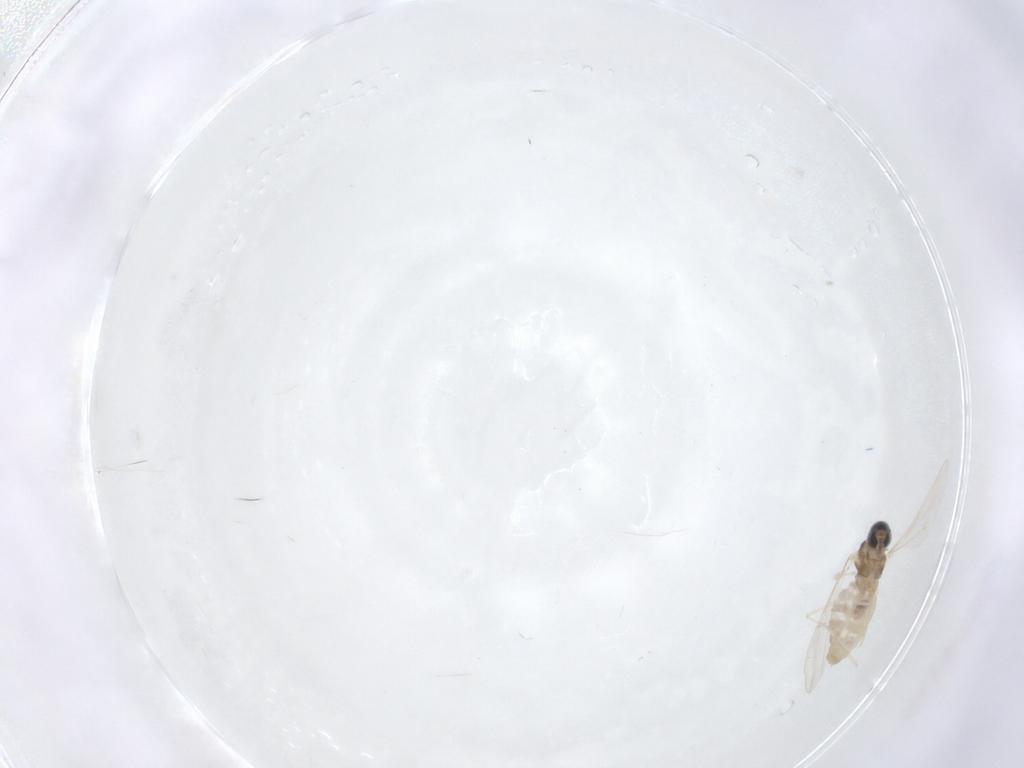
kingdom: Animalia
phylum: Arthropoda
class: Insecta
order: Diptera
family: Cecidomyiidae
